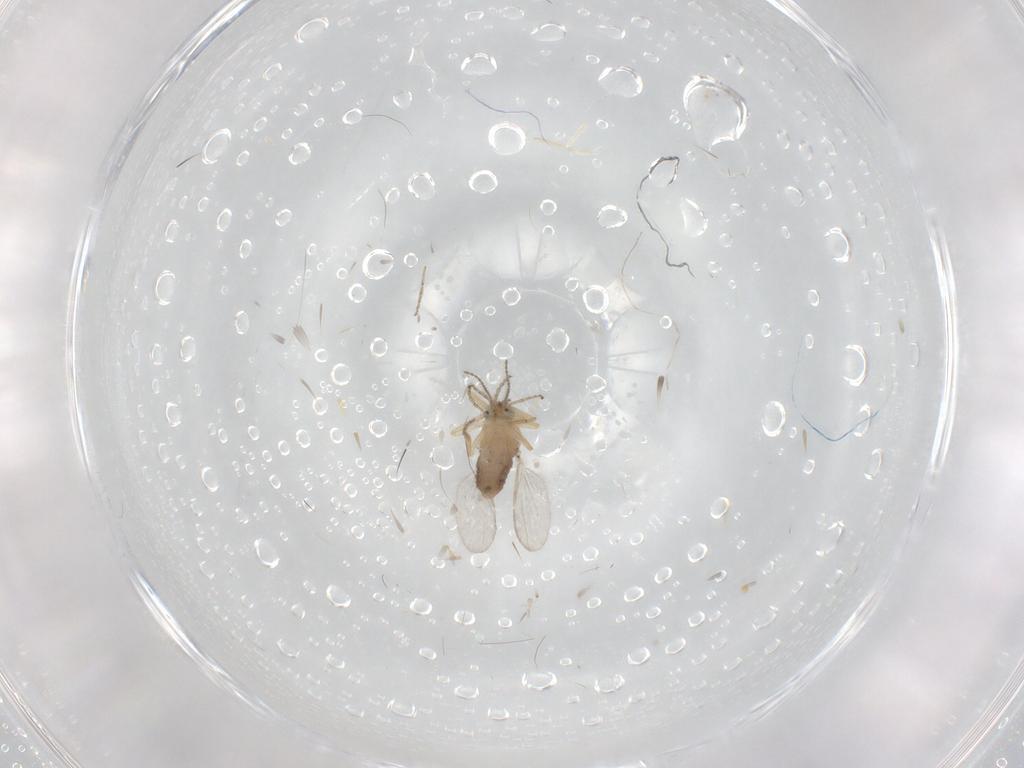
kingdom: Animalia
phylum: Arthropoda
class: Insecta
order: Diptera
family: Ceratopogonidae
